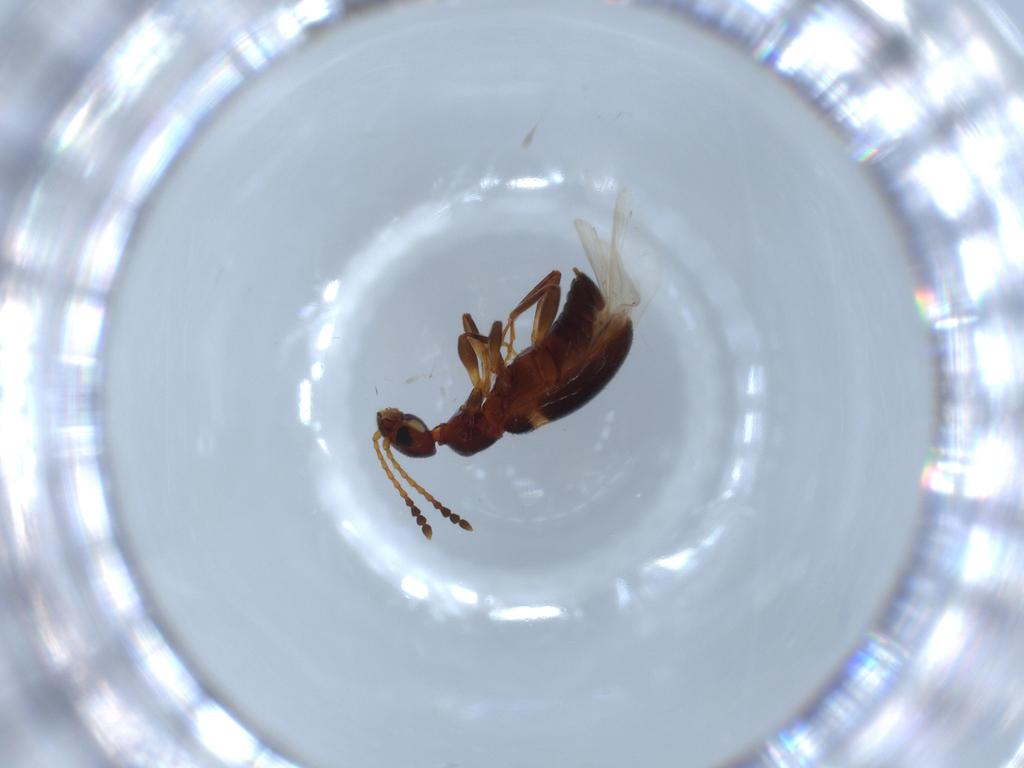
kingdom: Animalia
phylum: Arthropoda
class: Insecta
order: Coleoptera
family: Anthicidae
